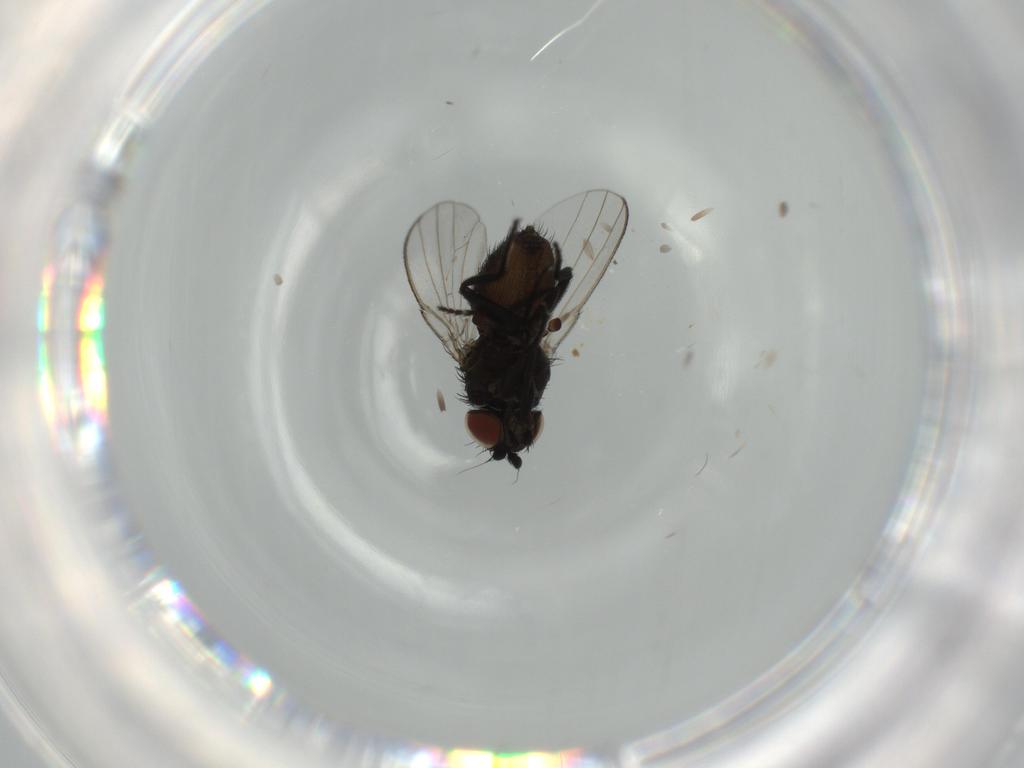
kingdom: Animalia
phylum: Arthropoda
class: Insecta
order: Diptera
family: Milichiidae
